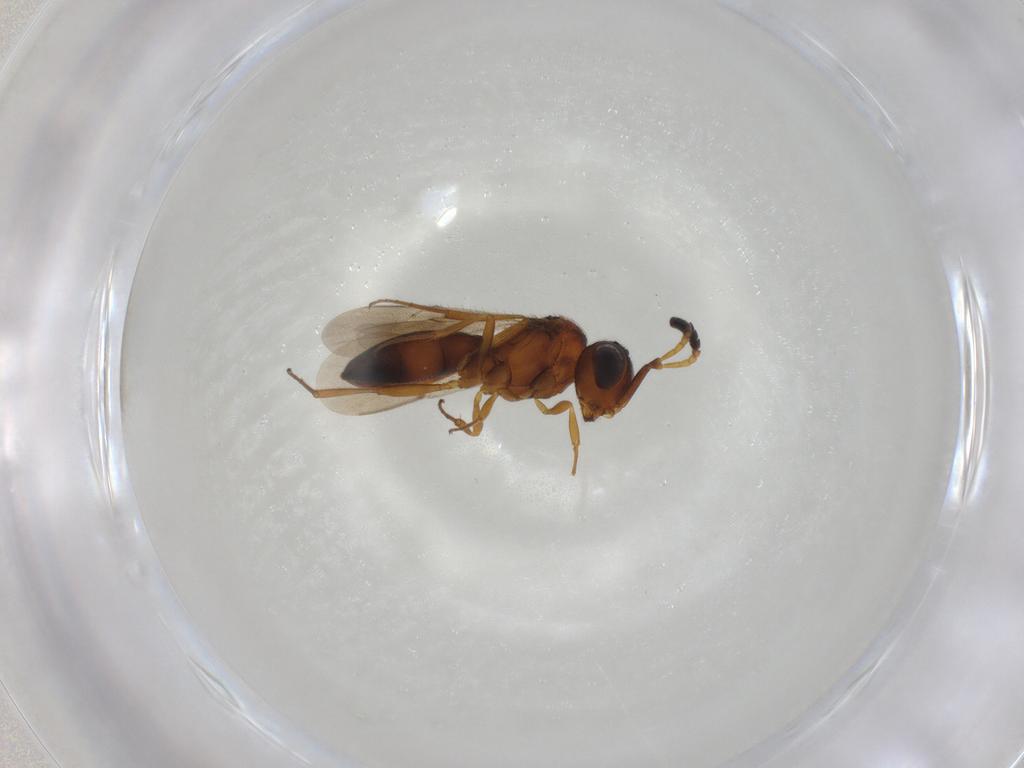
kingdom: Animalia
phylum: Arthropoda
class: Insecta
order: Hymenoptera
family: Scelionidae
